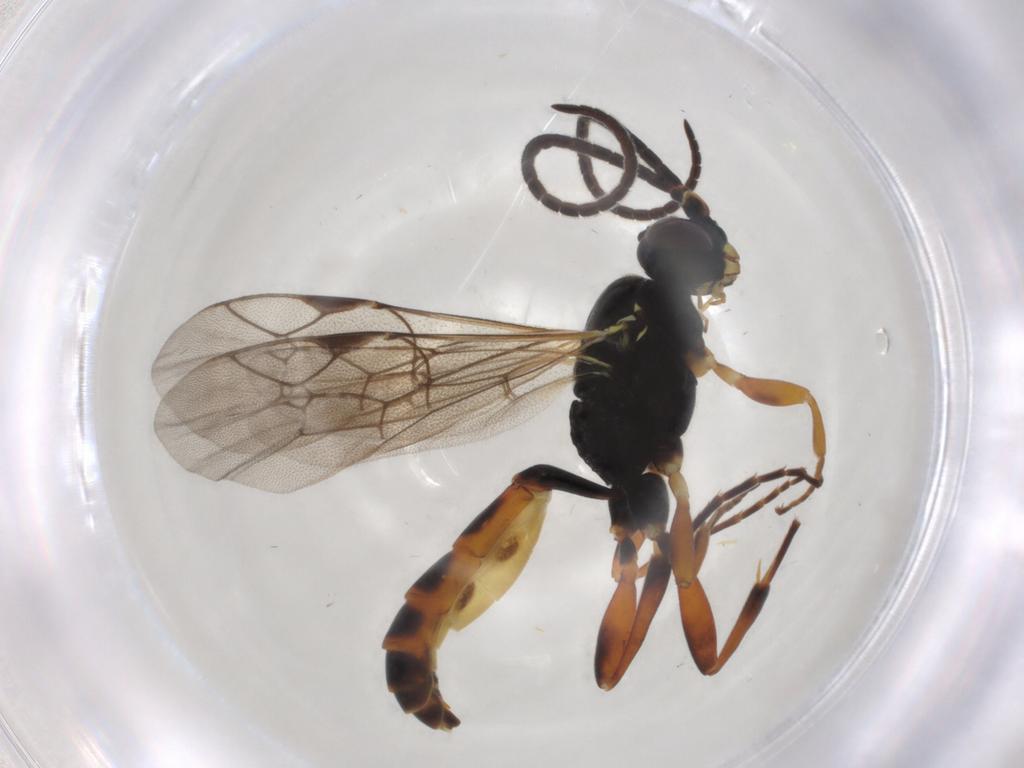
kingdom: Animalia
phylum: Arthropoda
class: Insecta
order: Hymenoptera
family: Ichneumonidae
